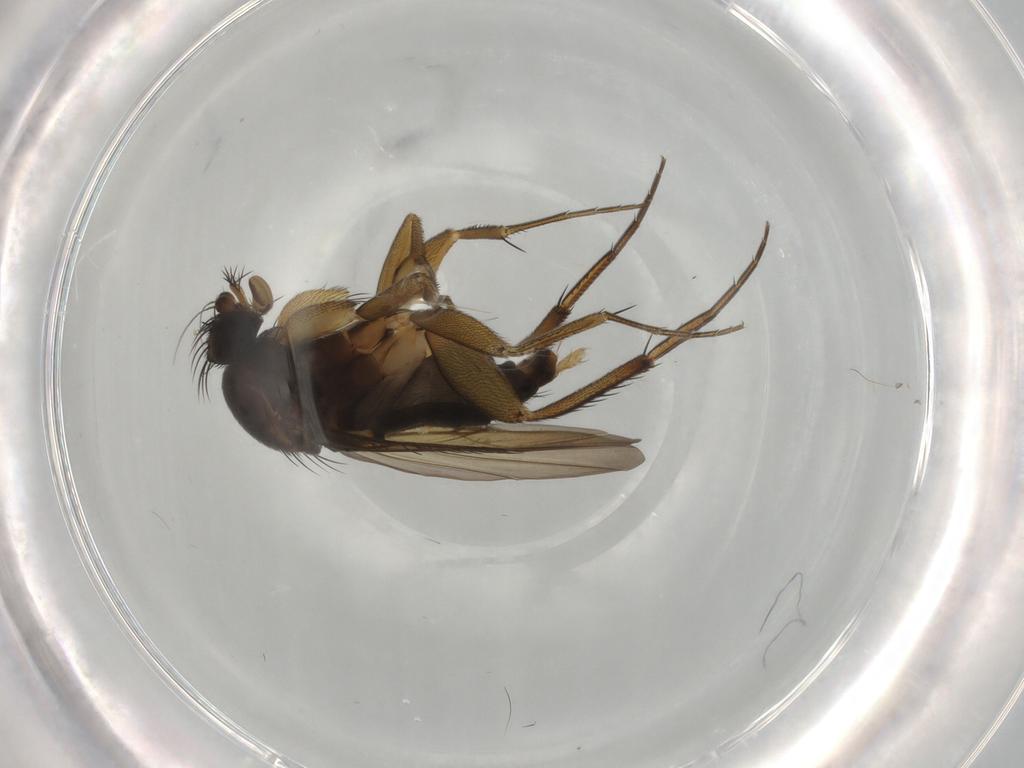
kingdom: Animalia
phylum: Arthropoda
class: Insecta
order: Diptera
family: Phoridae
